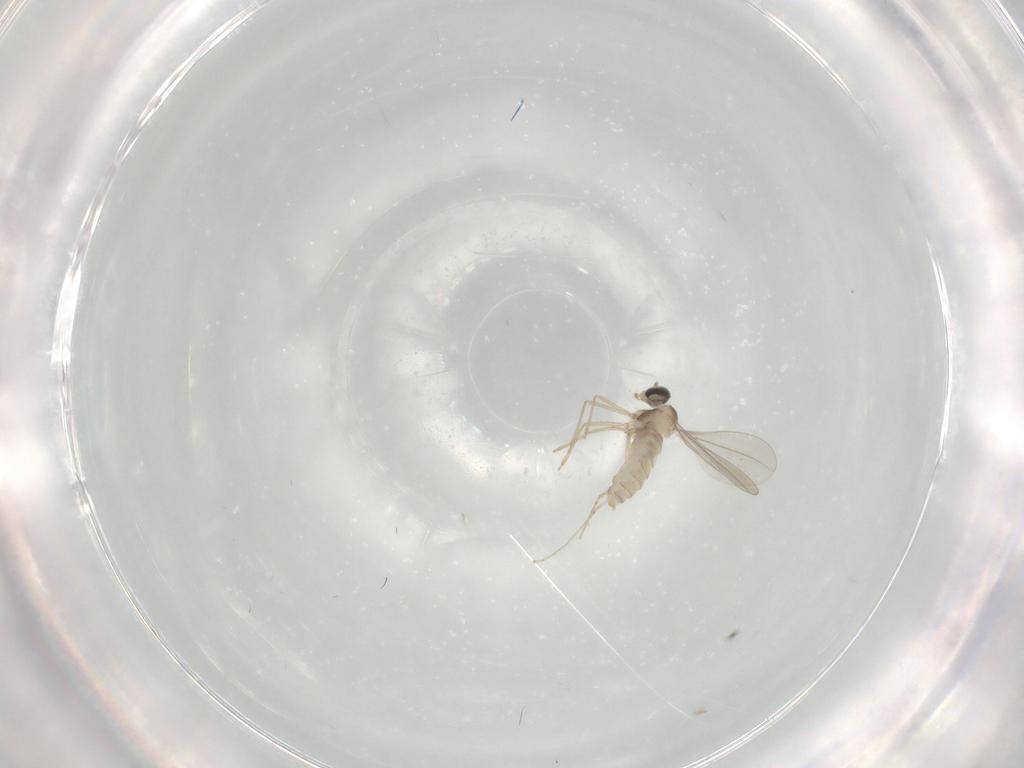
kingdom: Animalia
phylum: Arthropoda
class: Insecta
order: Diptera
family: Cecidomyiidae
